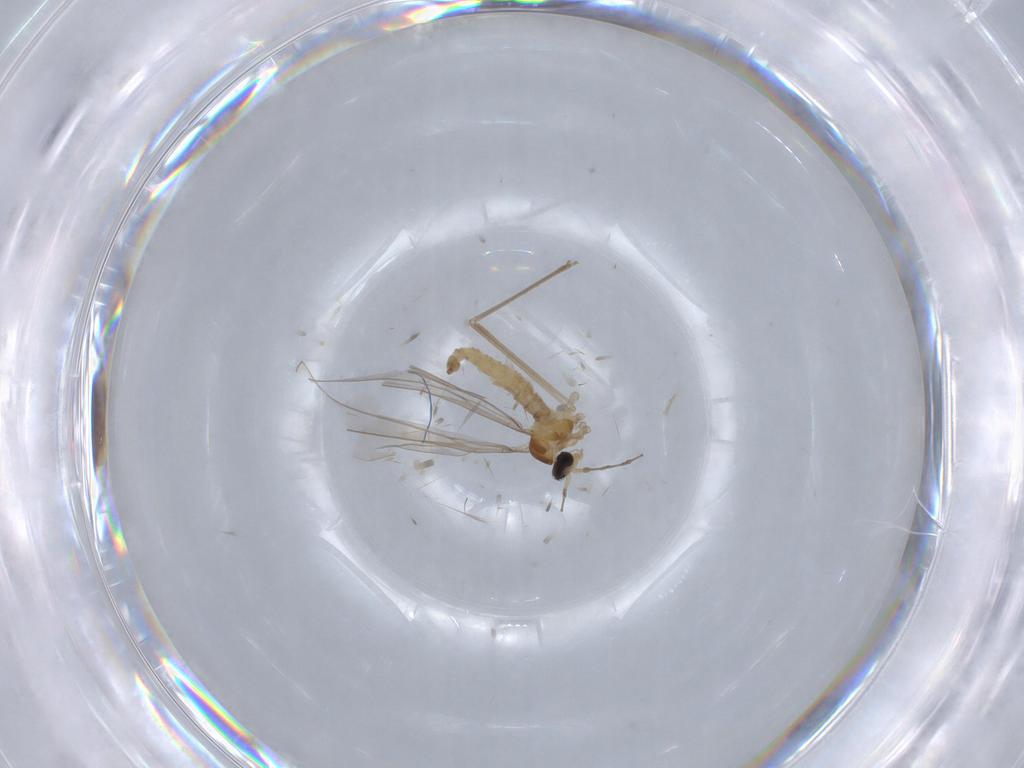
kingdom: Animalia
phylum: Arthropoda
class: Insecta
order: Diptera
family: Cecidomyiidae
